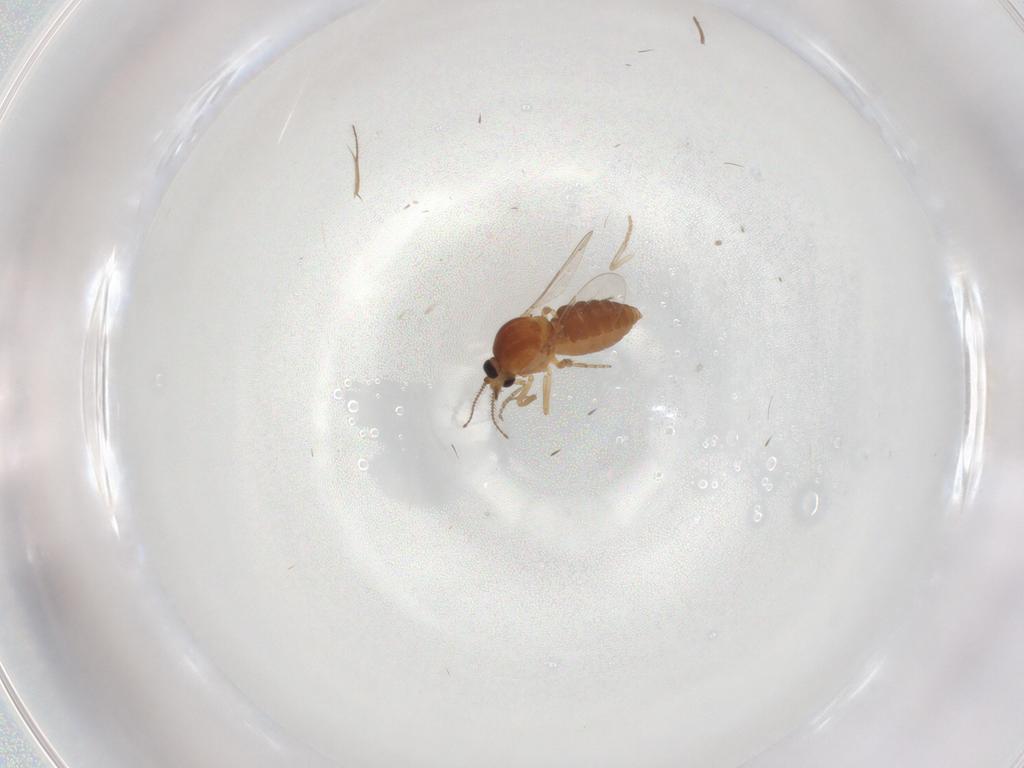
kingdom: Animalia
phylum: Arthropoda
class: Insecta
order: Diptera
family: Ceratopogonidae
